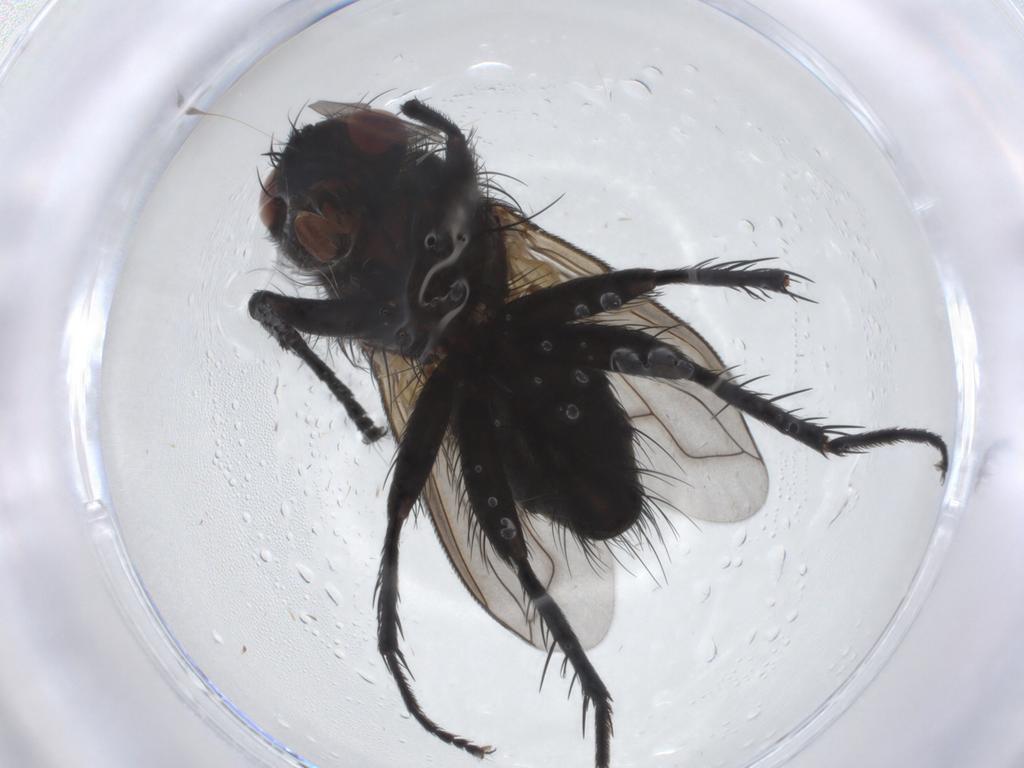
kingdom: Animalia
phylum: Arthropoda
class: Insecta
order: Diptera
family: Tachinidae
